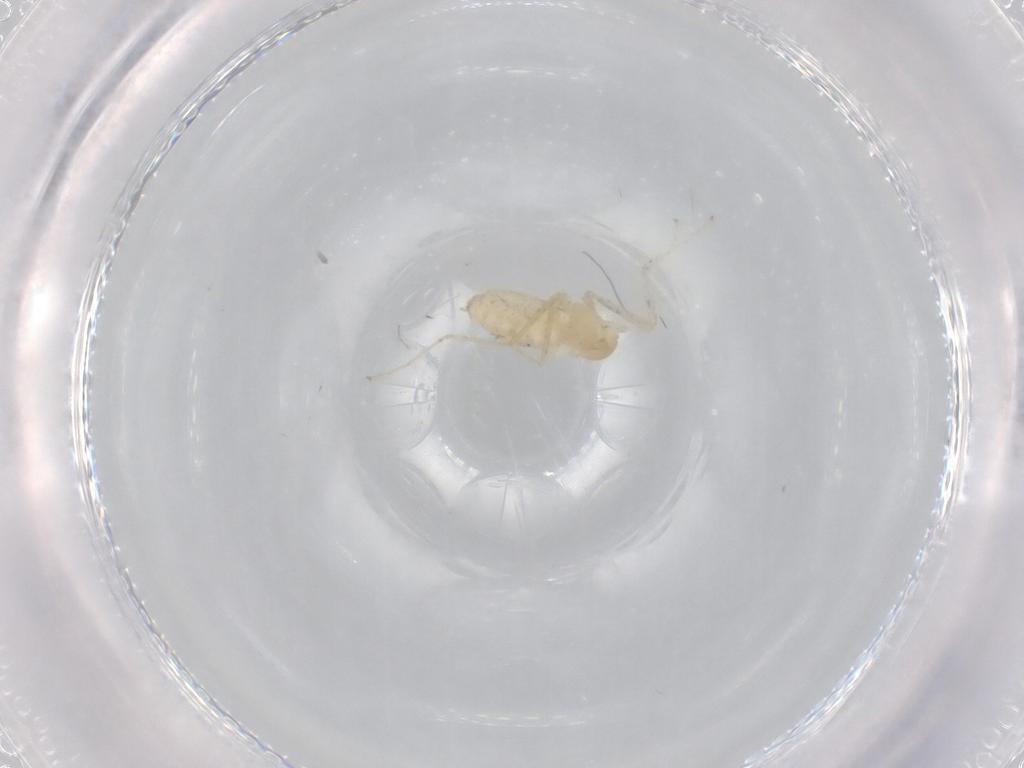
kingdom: Animalia
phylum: Arthropoda
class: Insecta
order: Diptera
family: Cecidomyiidae
